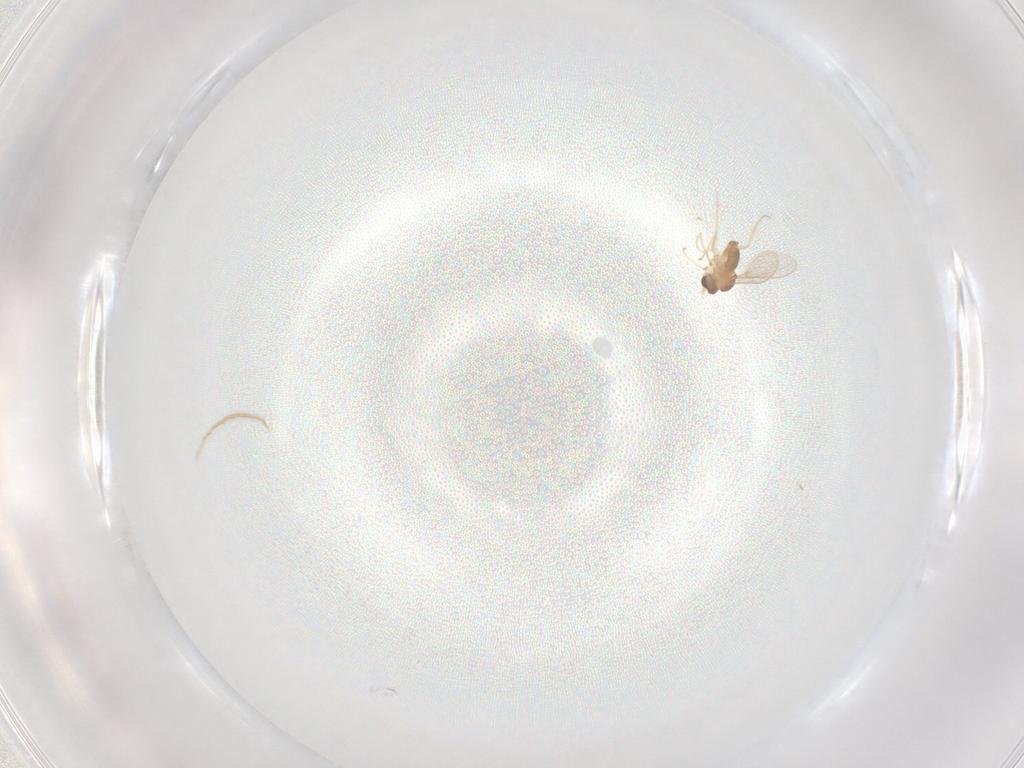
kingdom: Animalia
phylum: Arthropoda
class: Insecta
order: Diptera
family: Cecidomyiidae
